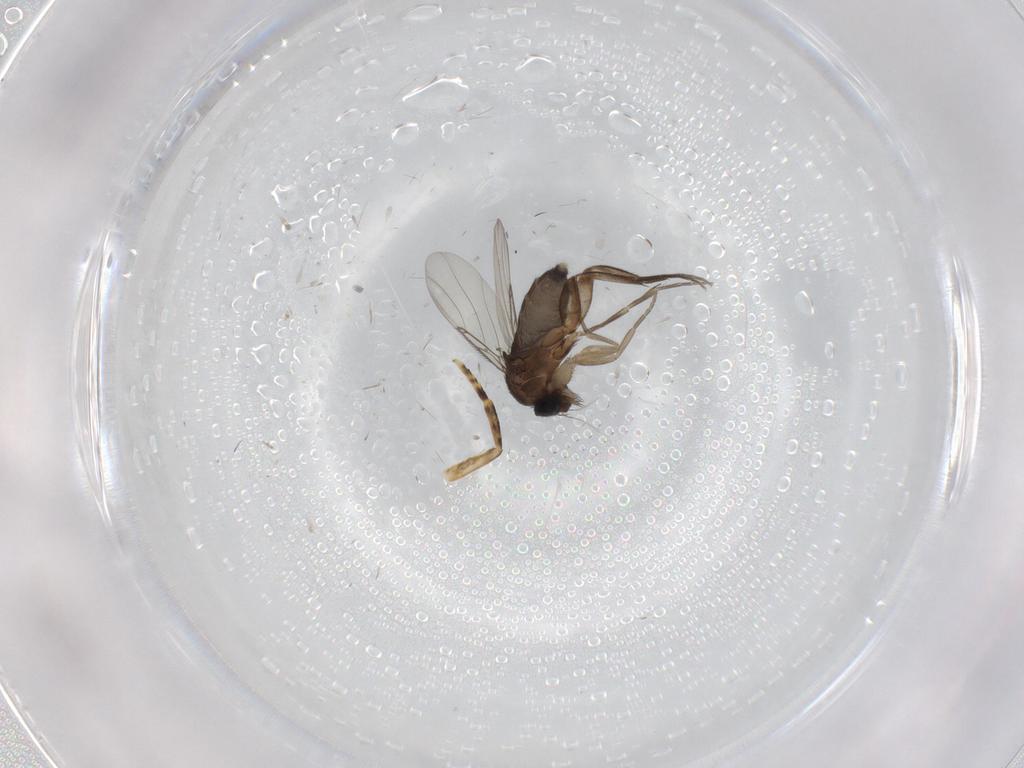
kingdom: Animalia
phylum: Arthropoda
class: Insecta
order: Diptera
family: Phoridae
